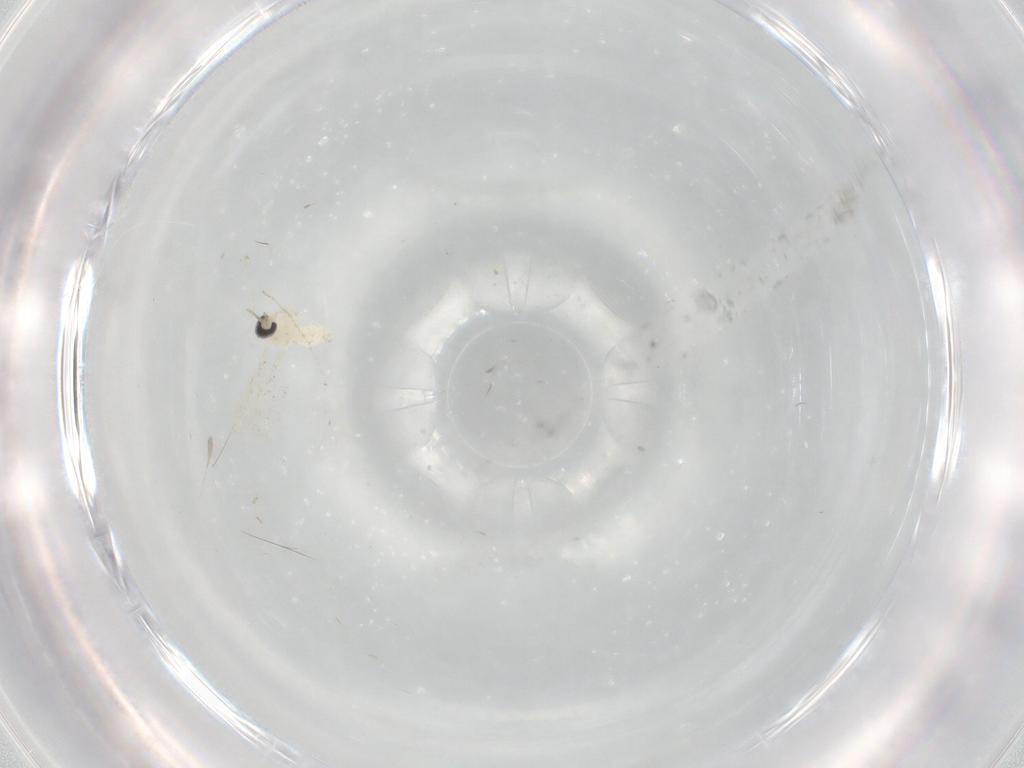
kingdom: Animalia
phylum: Arthropoda
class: Insecta
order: Diptera
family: Cecidomyiidae
